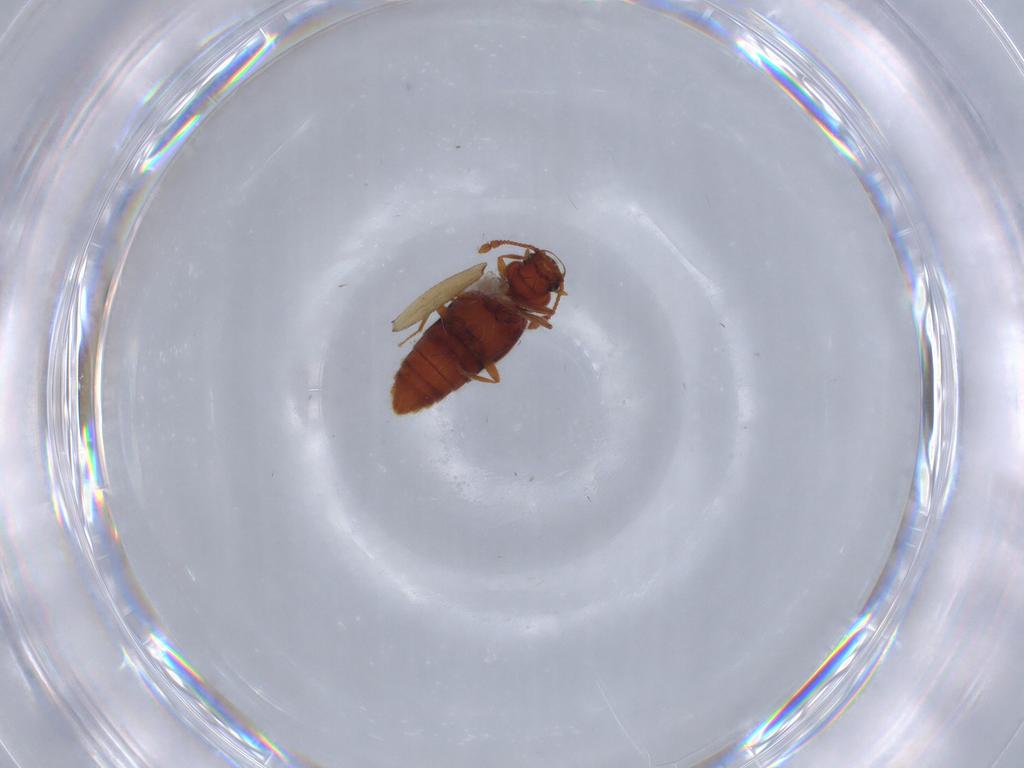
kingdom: Animalia
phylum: Arthropoda
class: Insecta
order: Coleoptera
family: Staphylinidae
